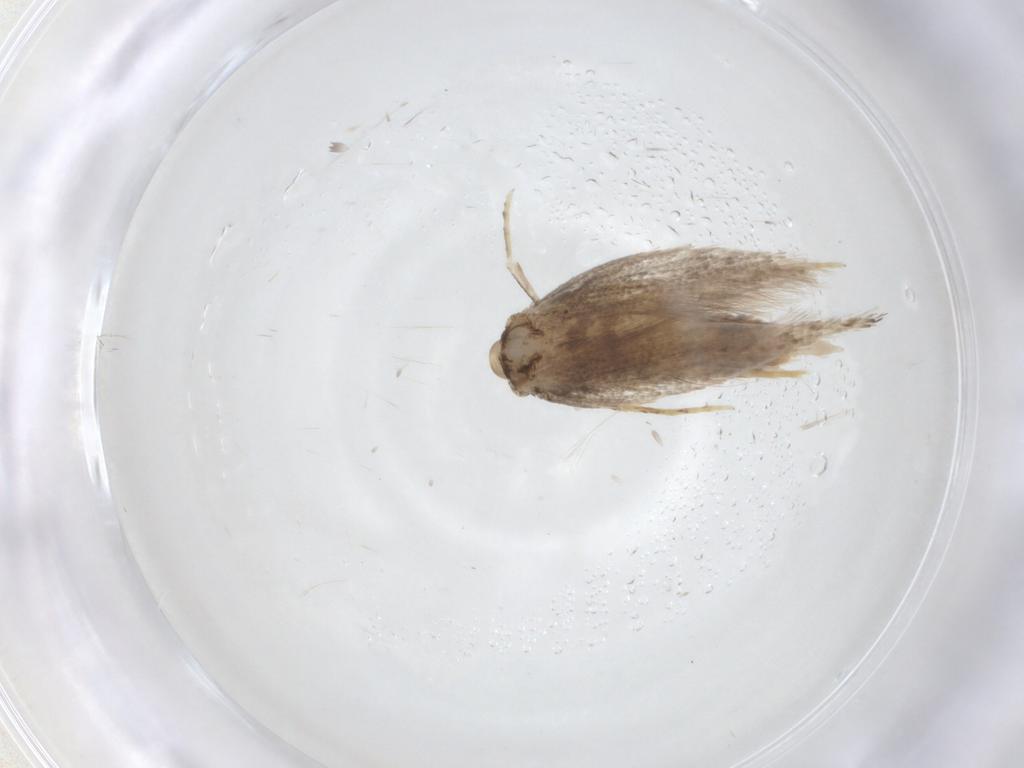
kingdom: Animalia
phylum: Arthropoda
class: Insecta
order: Lepidoptera
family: Cosmopterigidae
